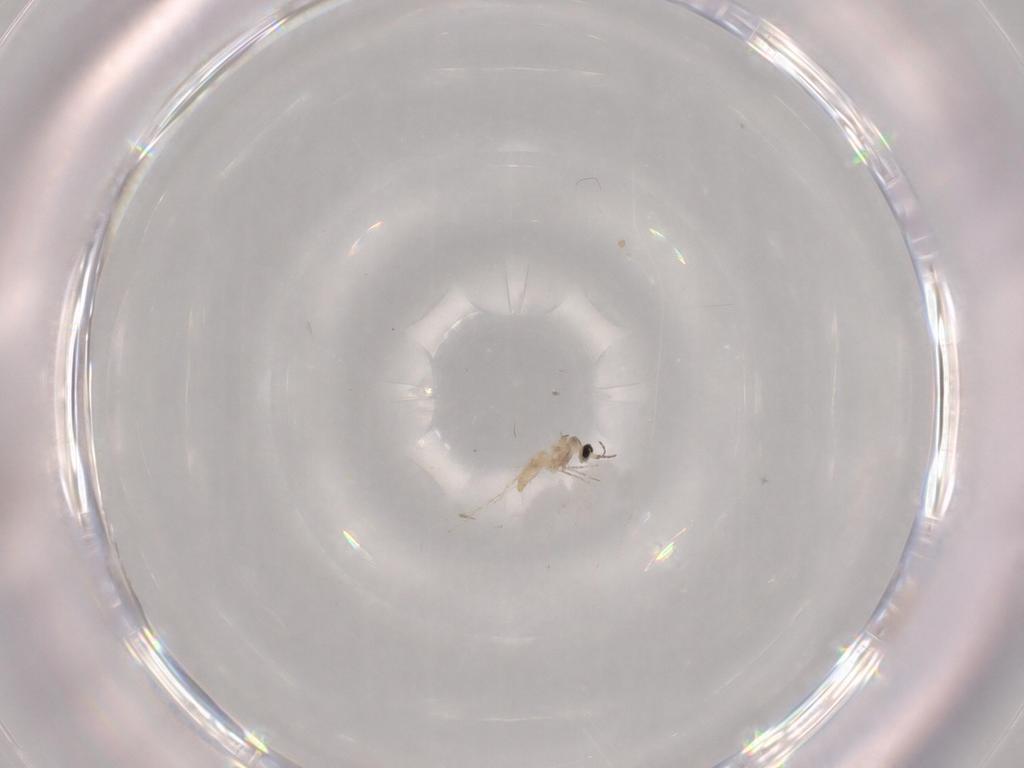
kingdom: Animalia
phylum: Arthropoda
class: Insecta
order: Diptera
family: Cecidomyiidae
